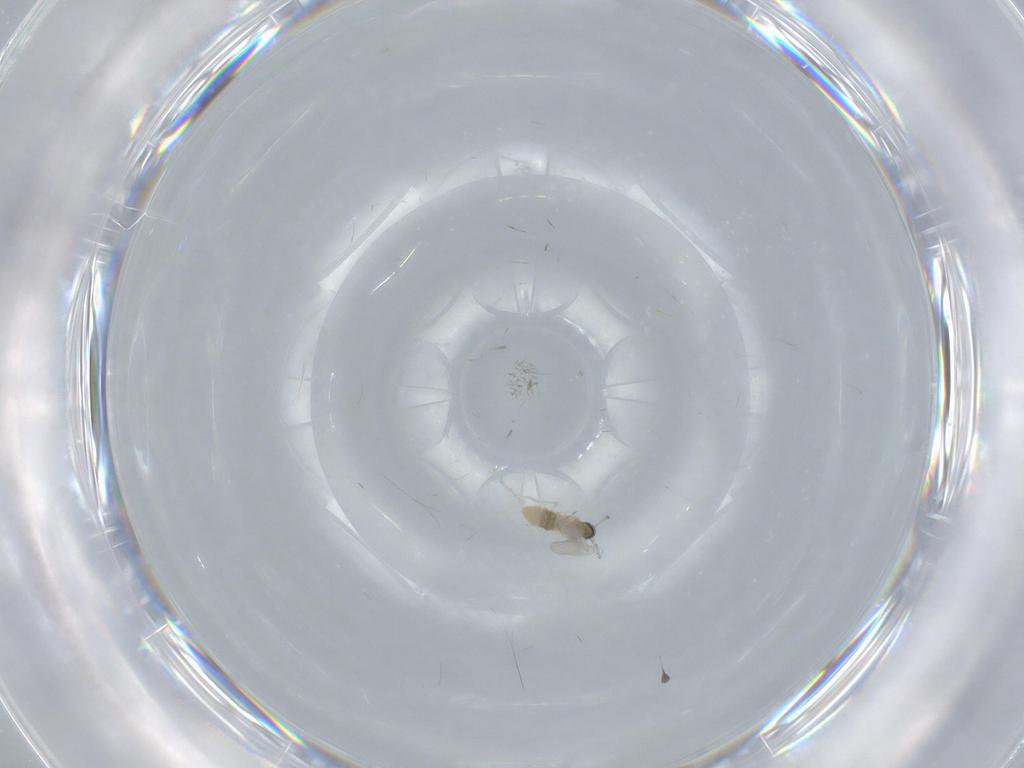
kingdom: Animalia
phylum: Arthropoda
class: Insecta
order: Diptera
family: Cecidomyiidae
